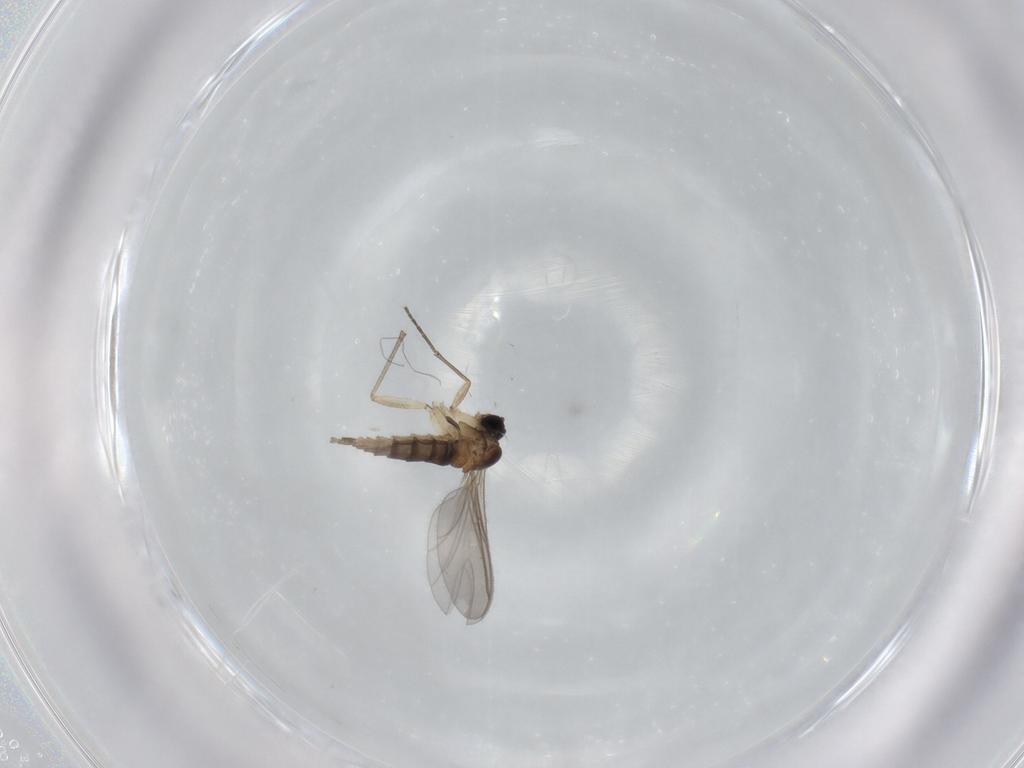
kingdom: Animalia
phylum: Arthropoda
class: Insecta
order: Diptera
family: Sciaridae
